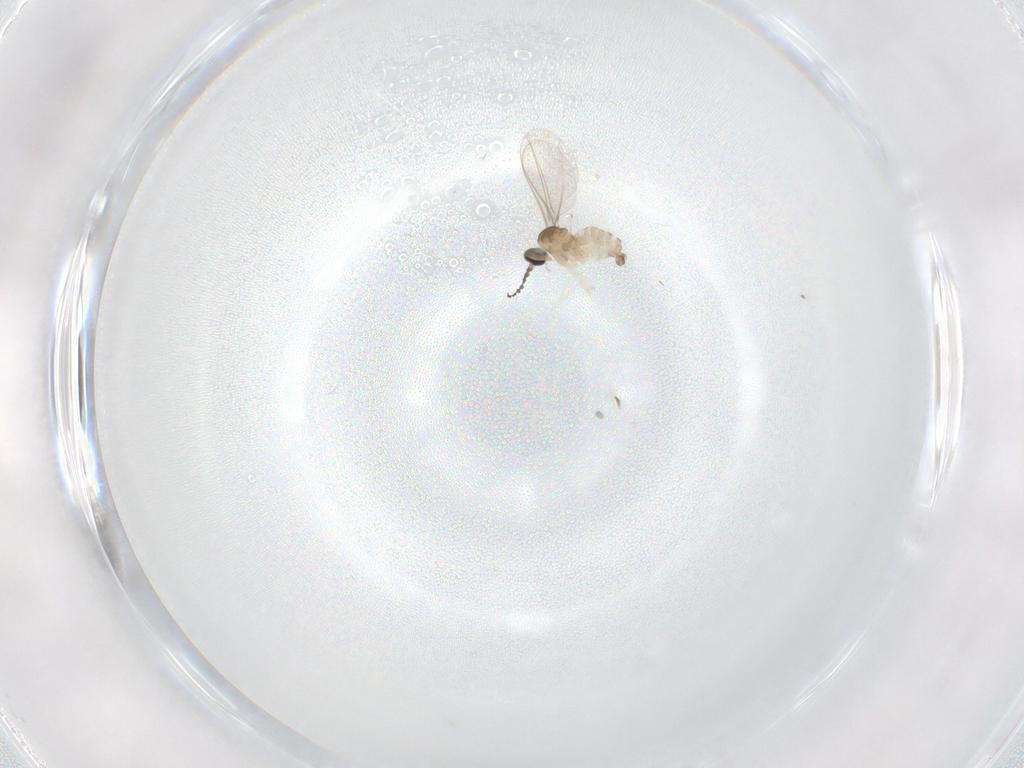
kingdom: Animalia
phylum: Arthropoda
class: Insecta
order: Diptera
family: Cecidomyiidae
